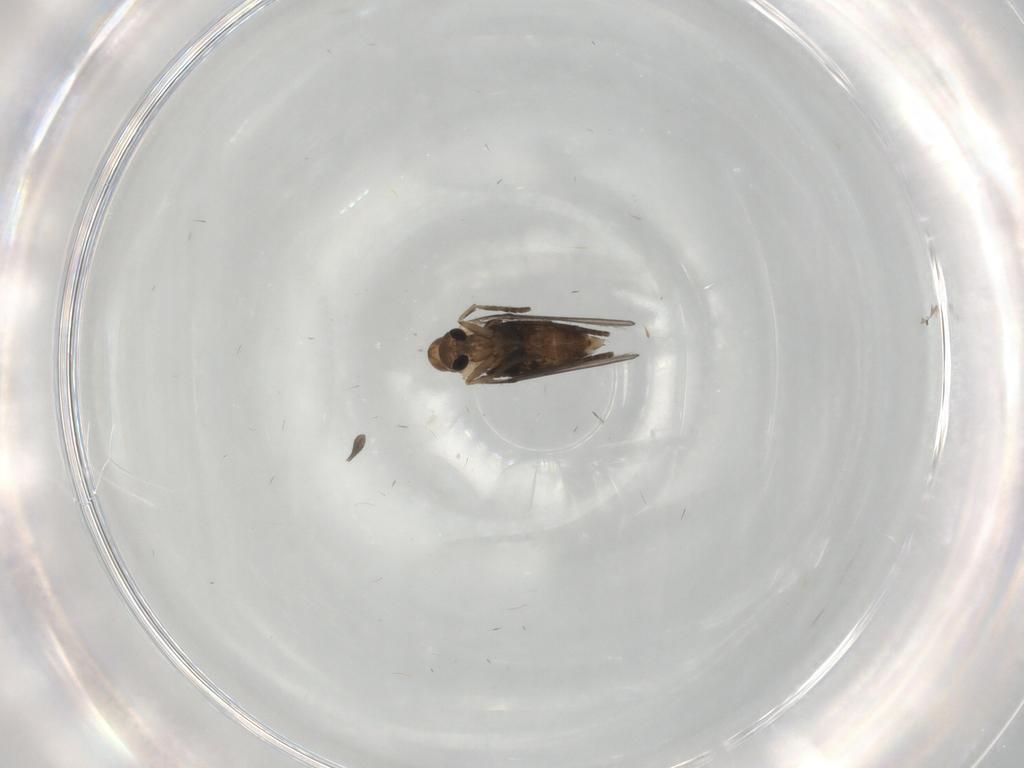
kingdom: Animalia
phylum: Arthropoda
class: Insecta
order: Diptera
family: Psychodidae
